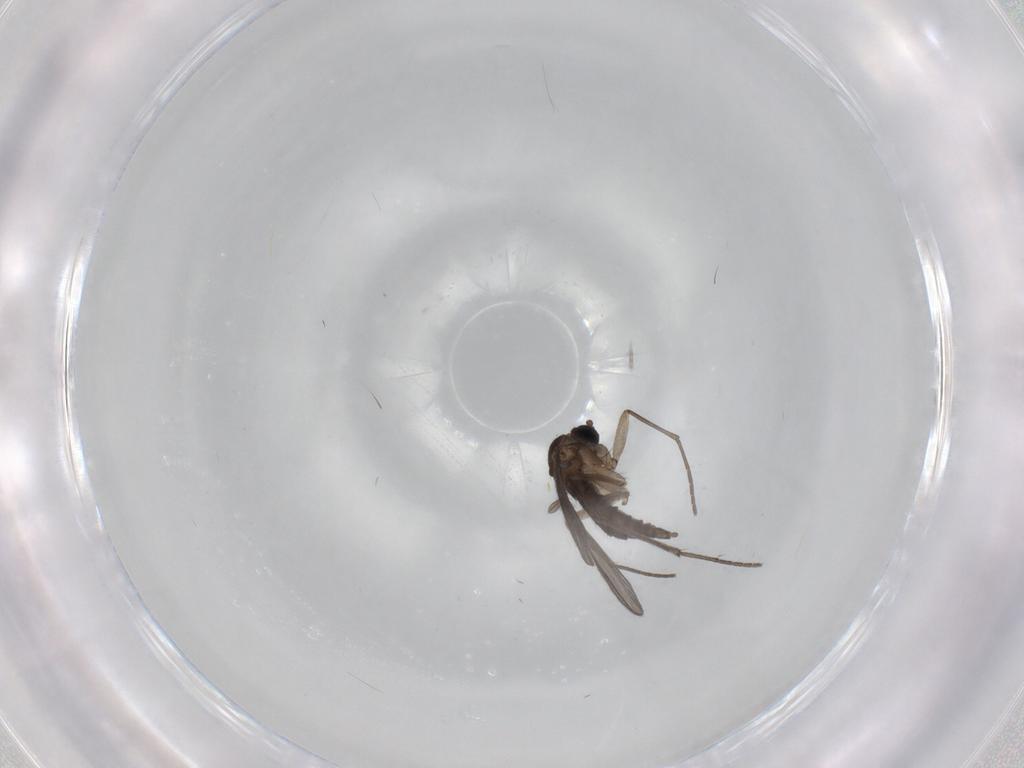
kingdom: Animalia
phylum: Arthropoda
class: Insecta
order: Diptera
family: Sciaridae
